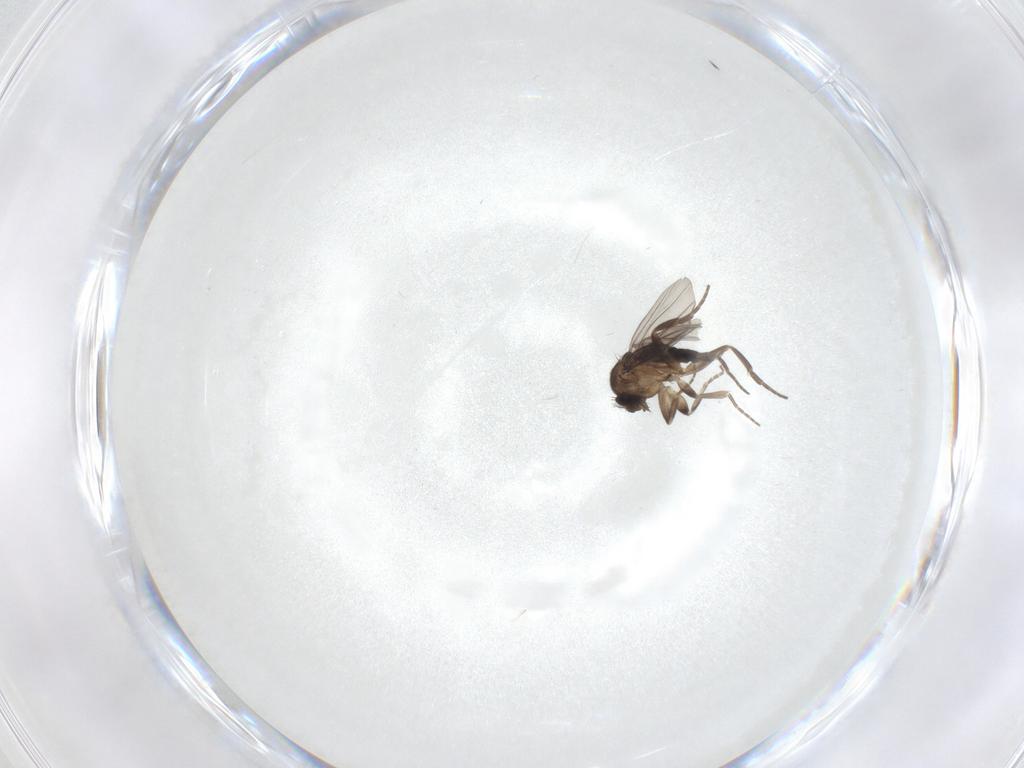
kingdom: Animalia
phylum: Arthropoda
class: Insecta
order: Diptera
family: Phoridae
